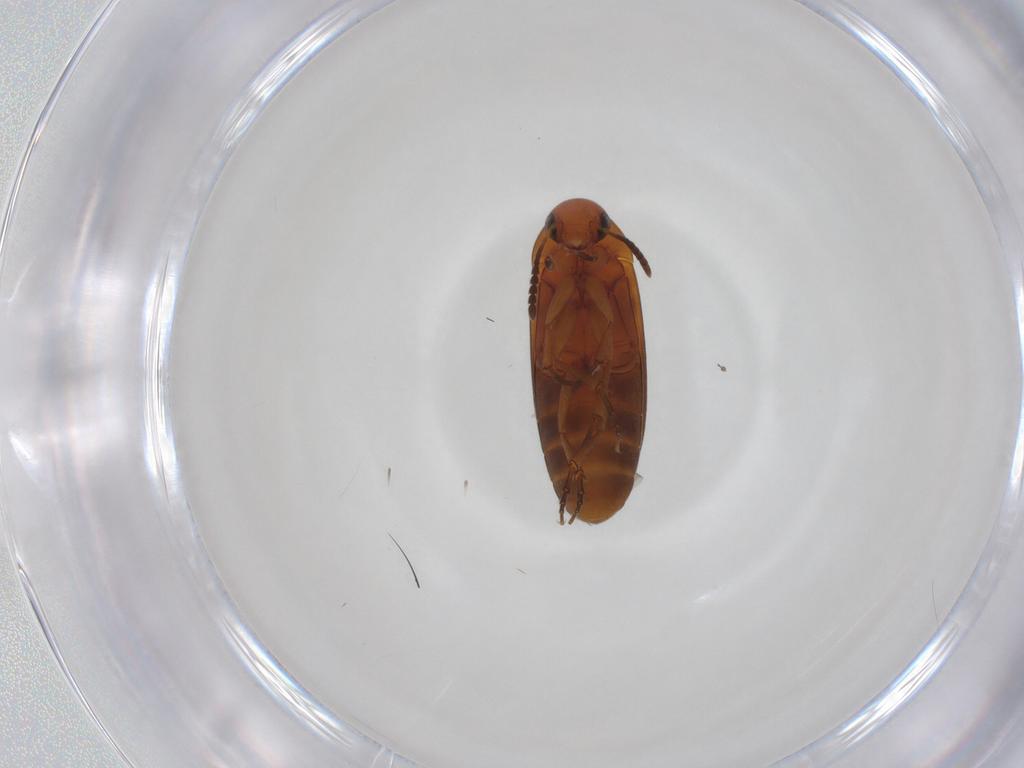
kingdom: Animalia
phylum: Arthropoda
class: Insecta
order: Coleoptera
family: Scraptiidae
